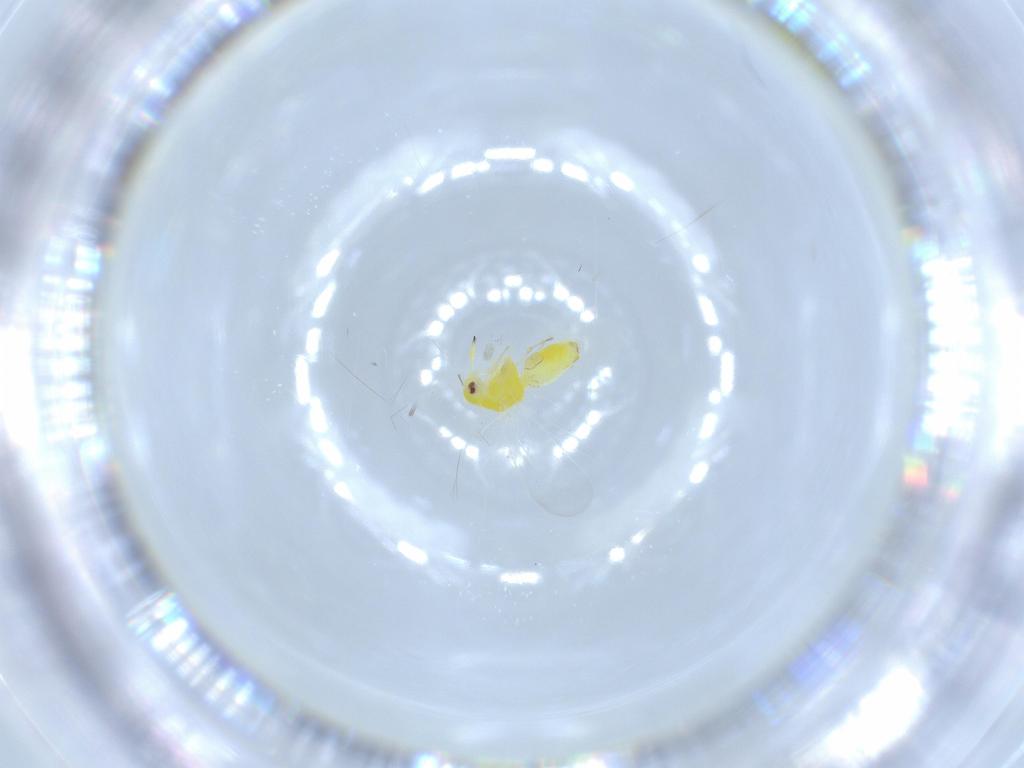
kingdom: Animalia
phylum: Arthropoda
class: Insecta
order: Hemiptera
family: Aleyrodidae
